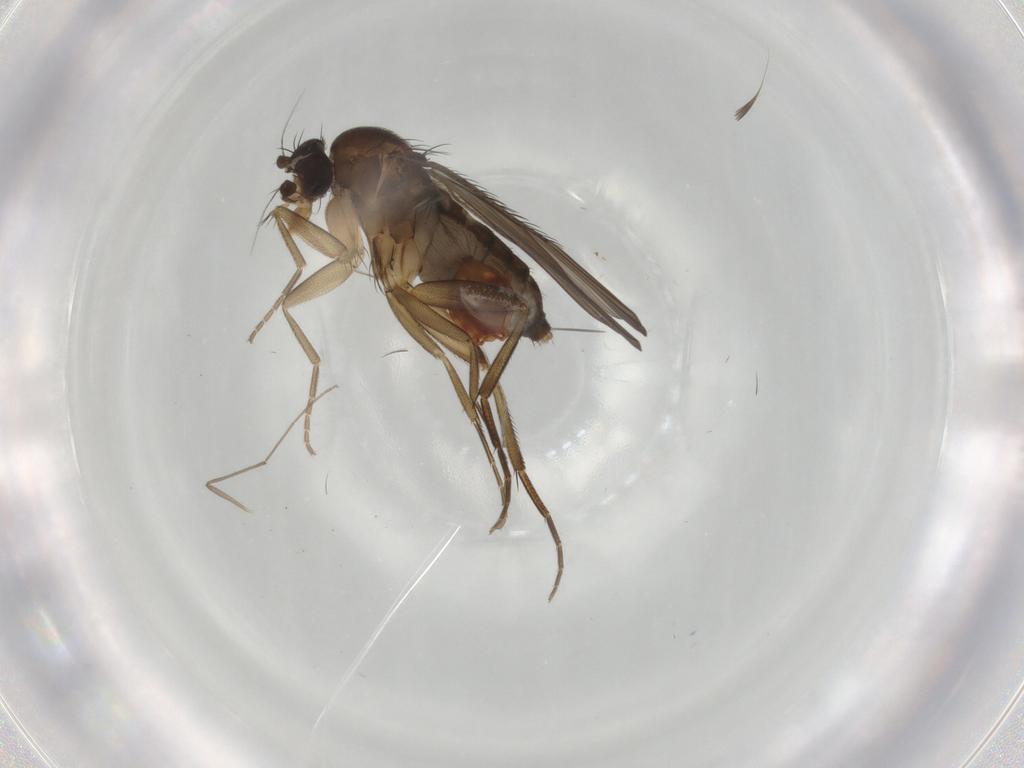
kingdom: Animalia
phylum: Arthropoda
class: Insecta
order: Diptera
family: Phoridae
